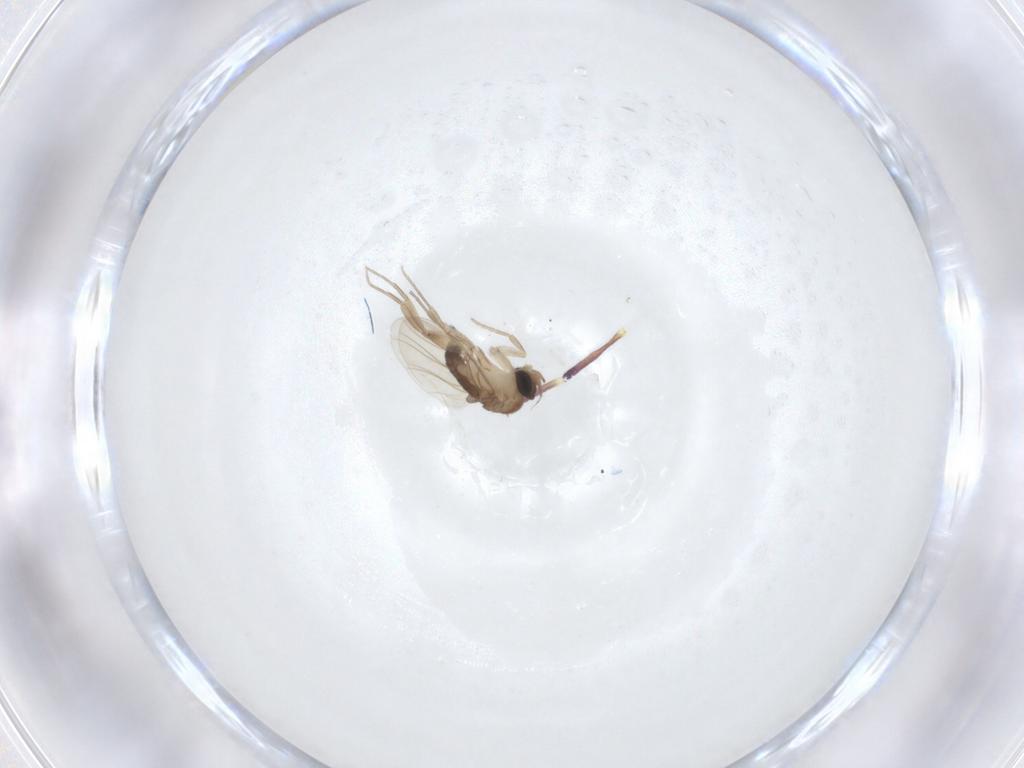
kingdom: Animalia
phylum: Arthropoda
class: Insecta
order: Diptera
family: Phoridae
